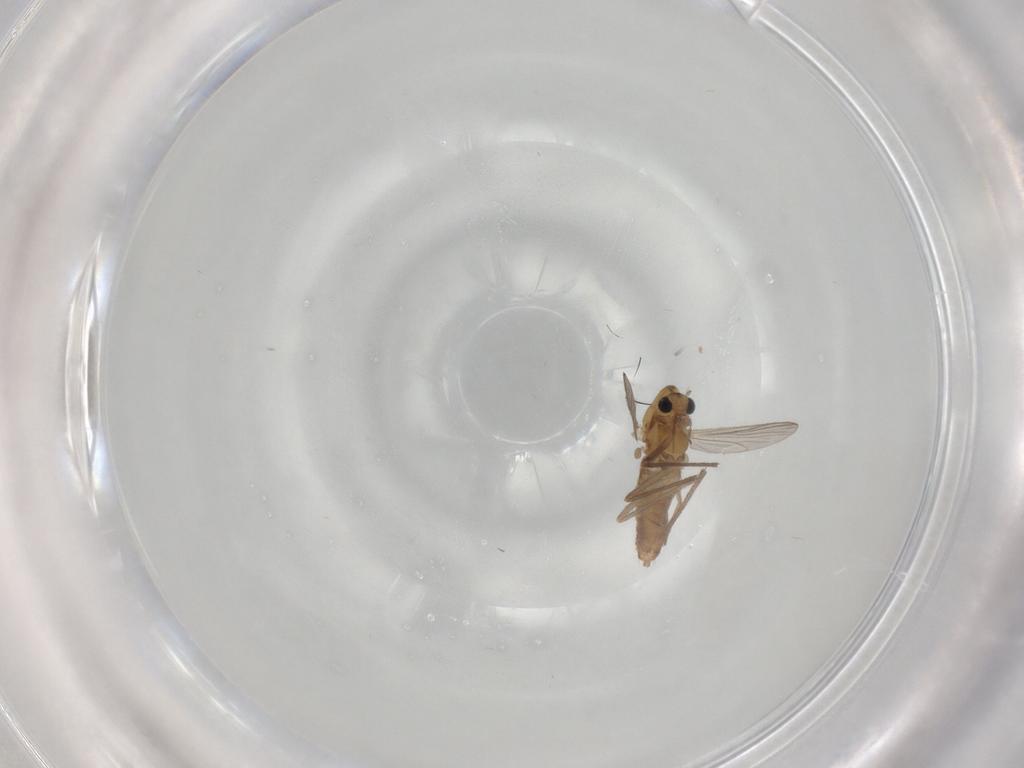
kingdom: Animalia
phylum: Arthropoda
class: Insecta
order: Diptera
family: Chironomidae
